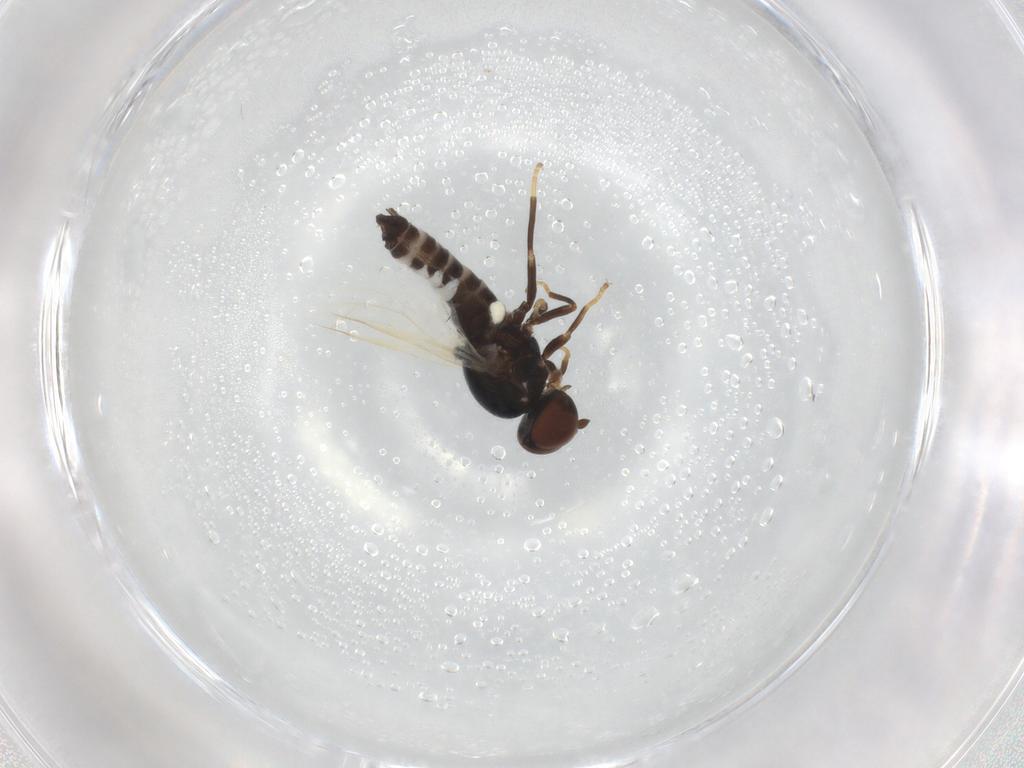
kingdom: Animalia
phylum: Arthropoda
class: Insecta
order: Diptera
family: Scenopinidae
